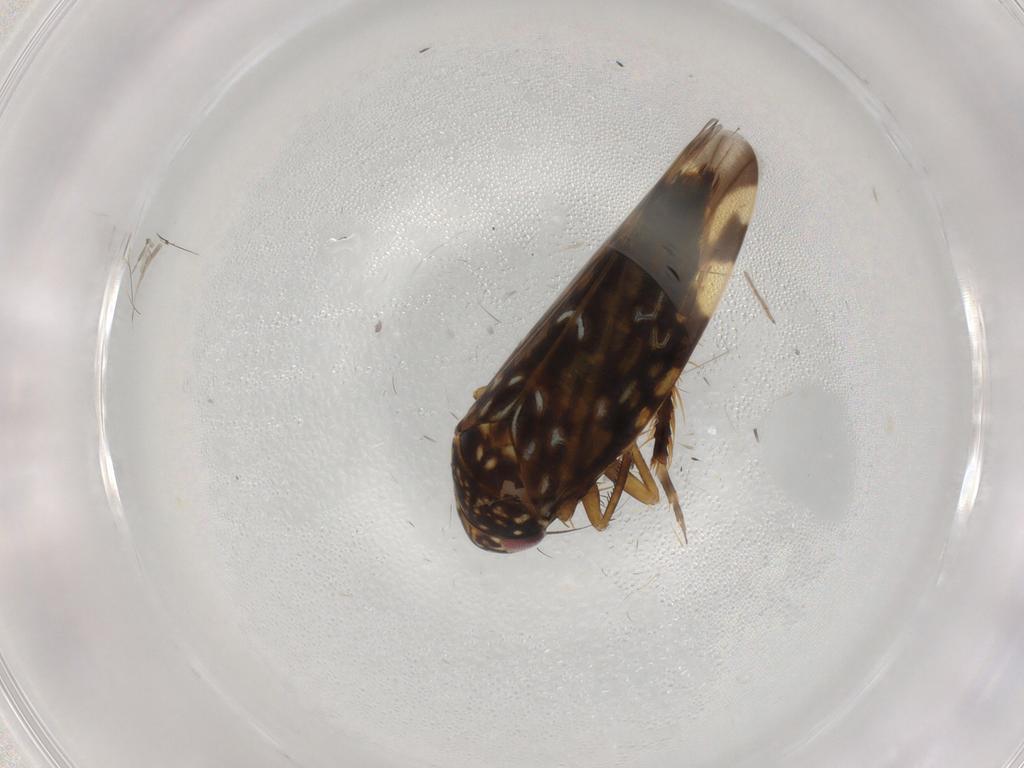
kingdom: Animalia
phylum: Arthropoda
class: Insecta
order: Hemiptera
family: Cicadellidae
